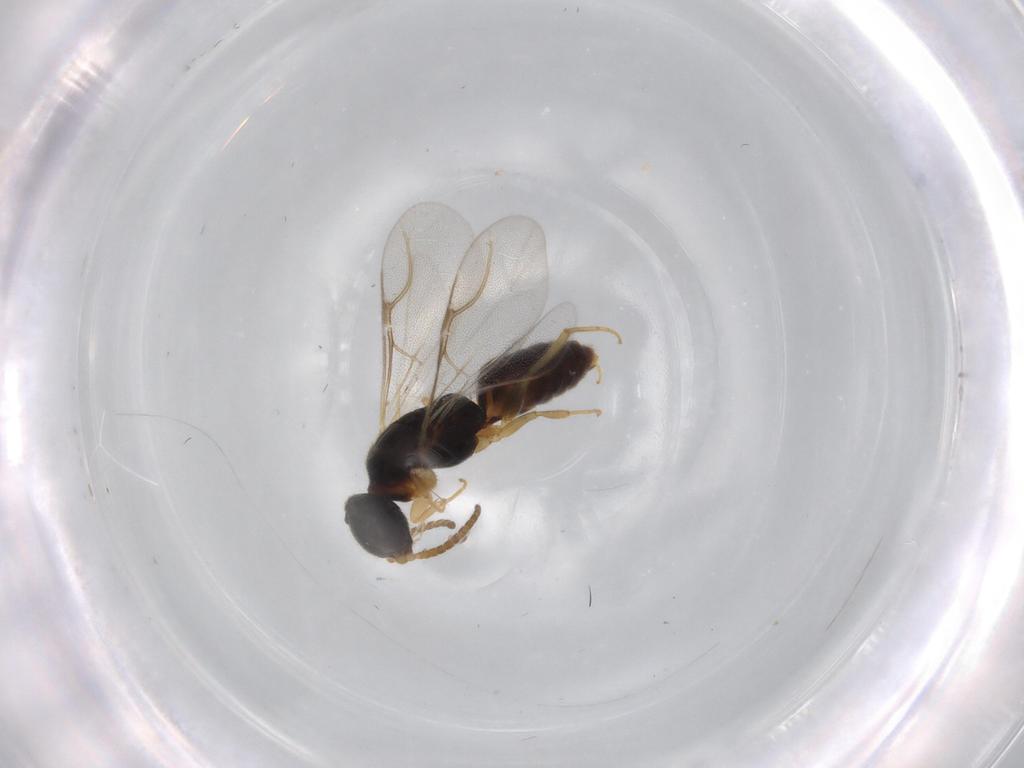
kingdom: Animalia
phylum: Arthropoda
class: Insecta
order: Hymenoptera
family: Bethylidae
